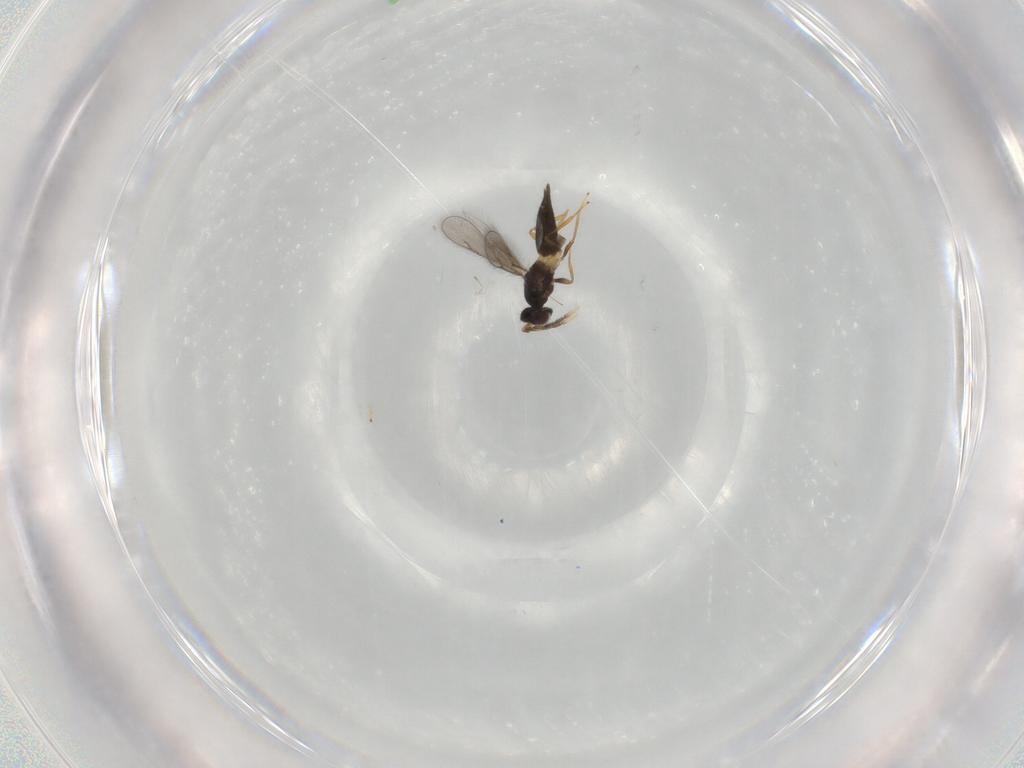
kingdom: Animalia
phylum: Arthropoda
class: Insecta
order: Hymenoptera
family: Eulophidae
